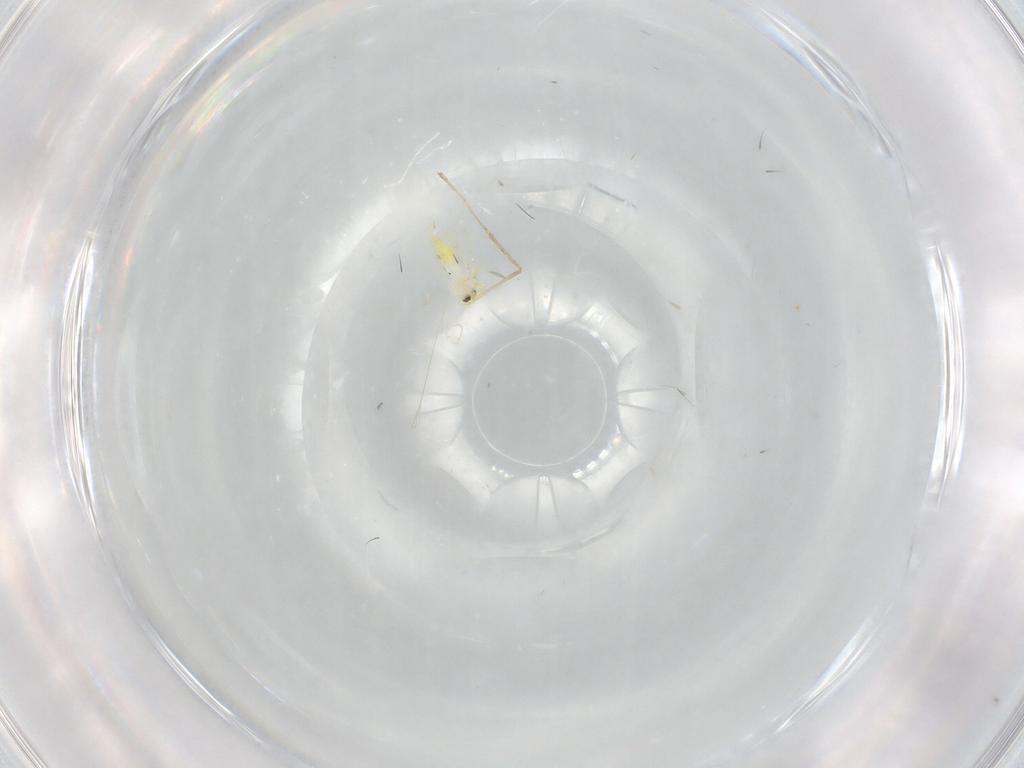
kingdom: Animalia
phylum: Arthropoda
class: Insecta
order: Diptera
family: Cecidomyiidae
